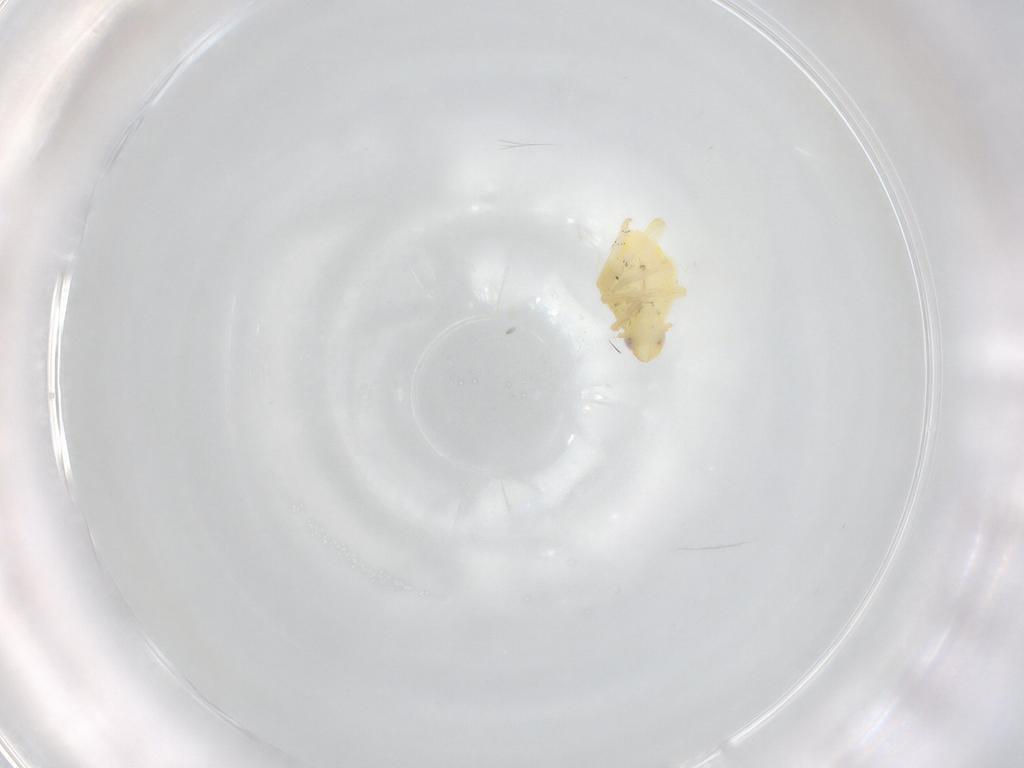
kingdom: Animalia
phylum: Arthropoda
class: Insecta
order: Hemiptera
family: Cicadellidae
